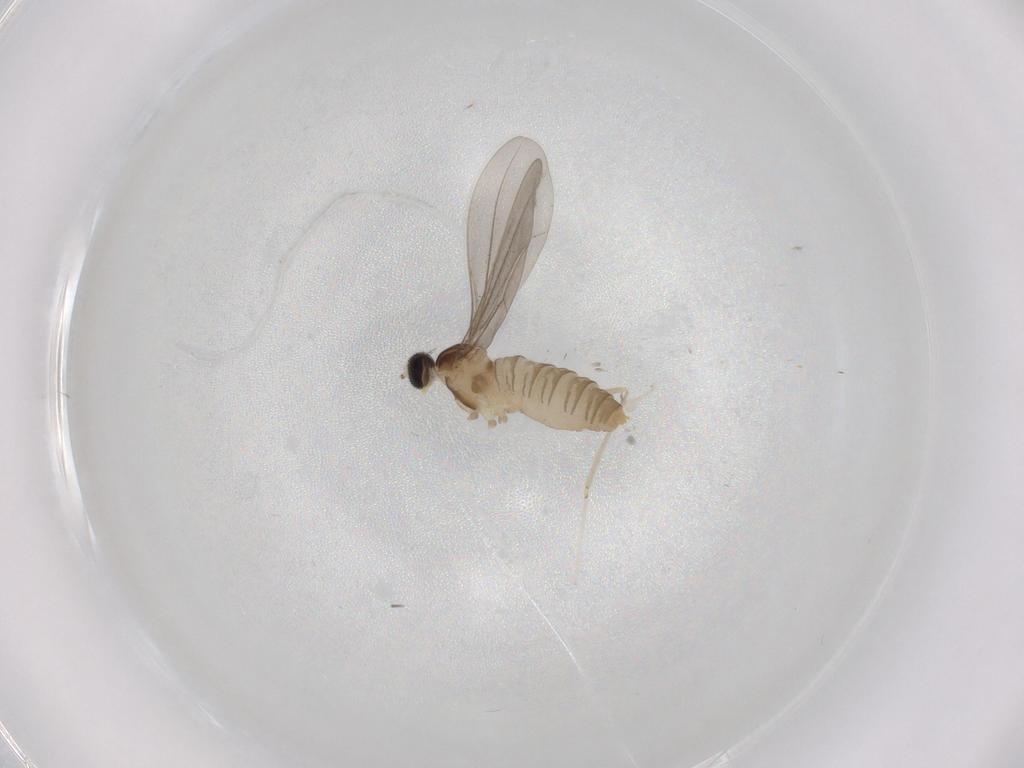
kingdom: Animalia
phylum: Arthropoda
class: Insecta
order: Diptera
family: Cecidomyiidae
